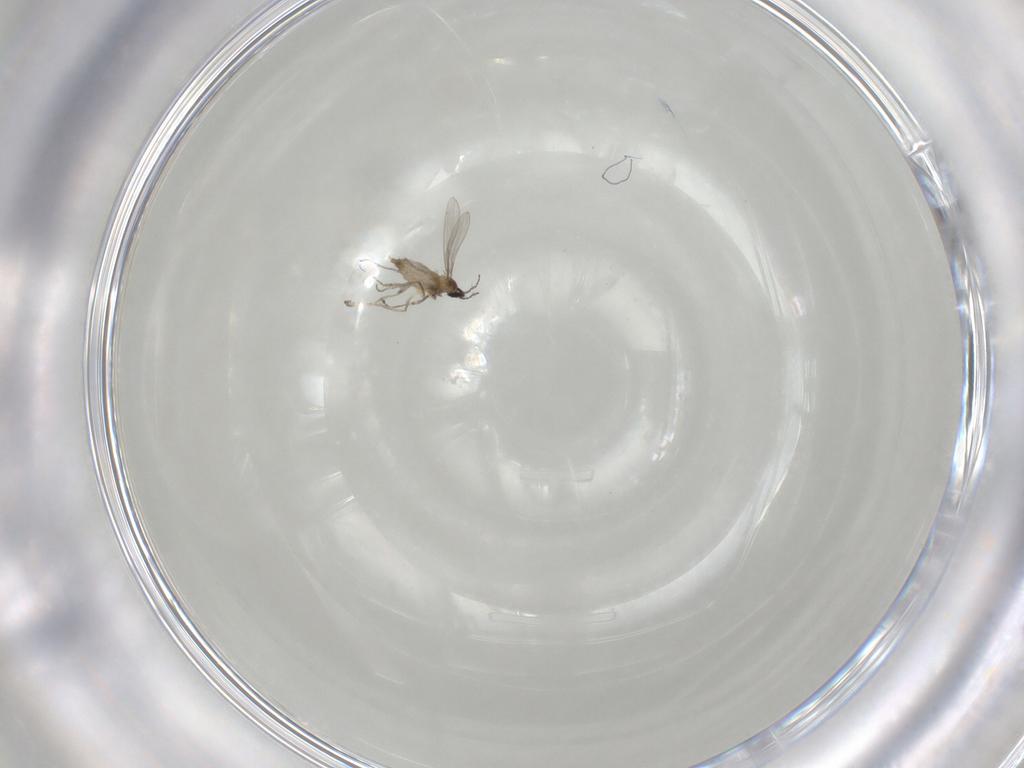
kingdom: Animalia
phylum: Arthropoda
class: Insecta
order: Diptera
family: Cecidomyiidae
